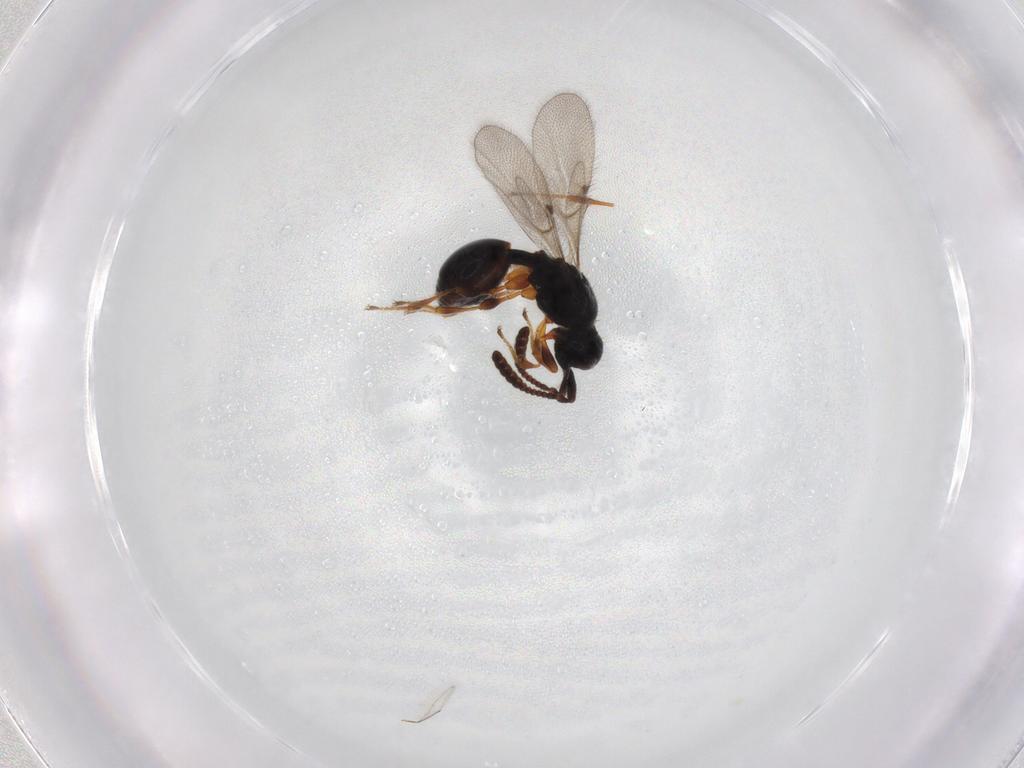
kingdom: Animalia
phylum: Arthropoda
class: Insecta
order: Hymenoptera
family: Diapriidae
